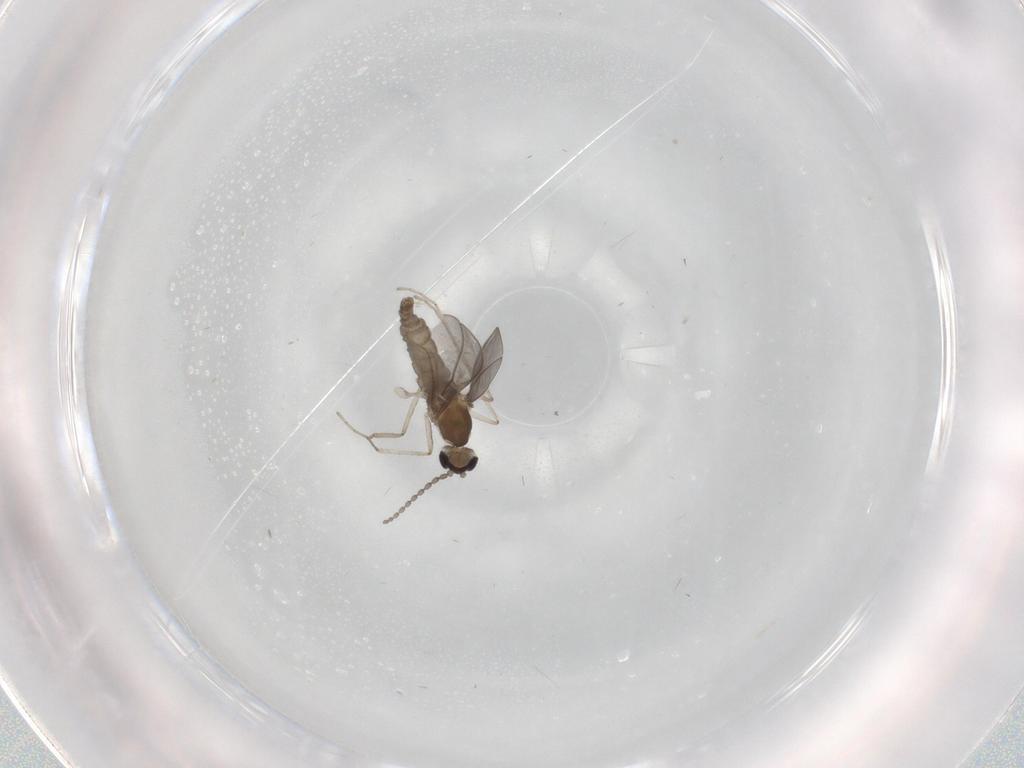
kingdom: Animalia
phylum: Arthropoda
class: Insecta
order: Diptera
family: Cecidomyiidae
